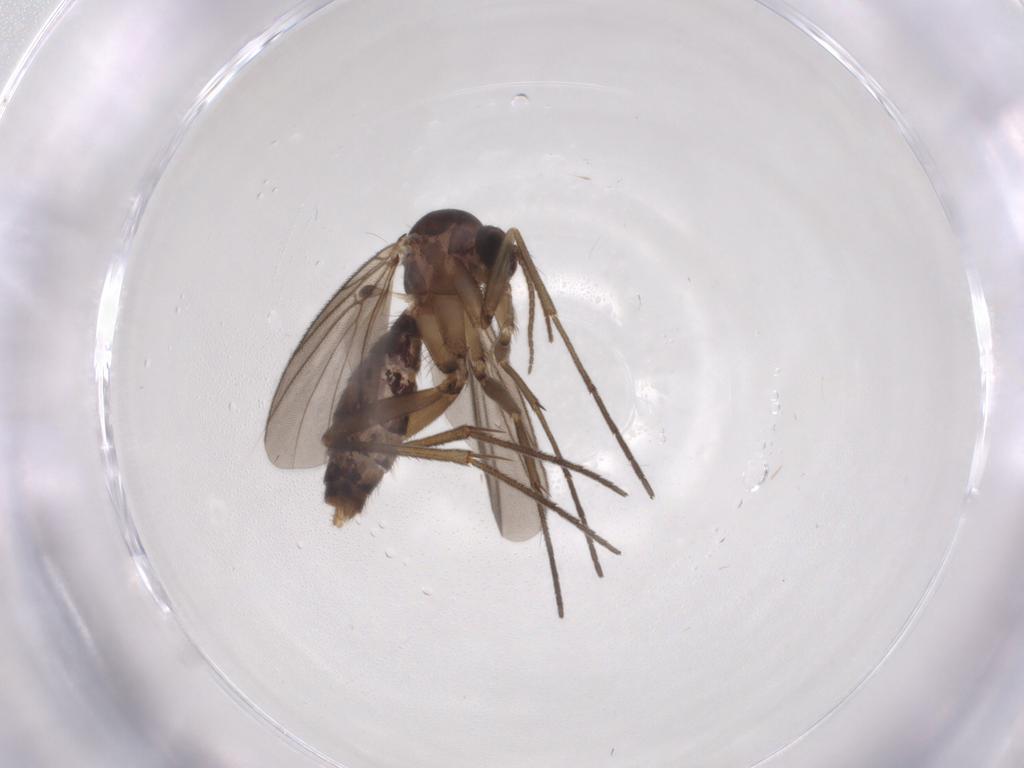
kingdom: Animalia
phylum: Arthropoda
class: Insecta
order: Diptera
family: Mycetophilidae
